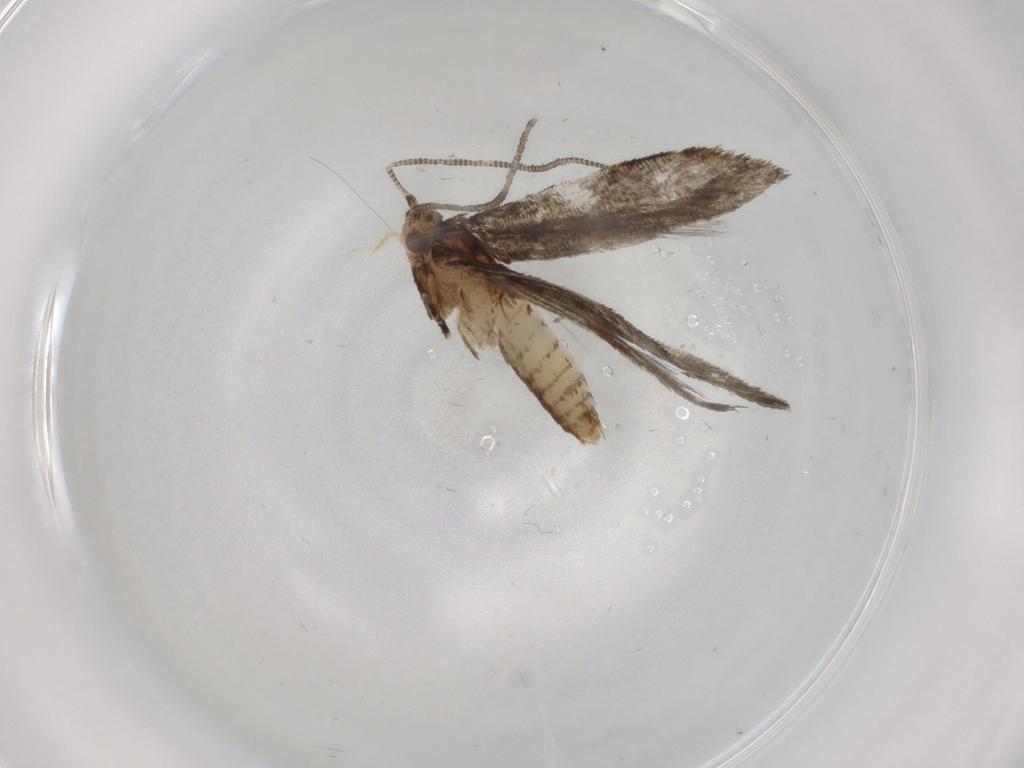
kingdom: Animalia
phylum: Arthropoda
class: Insecta
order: Lepidoptera
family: Tineidae
